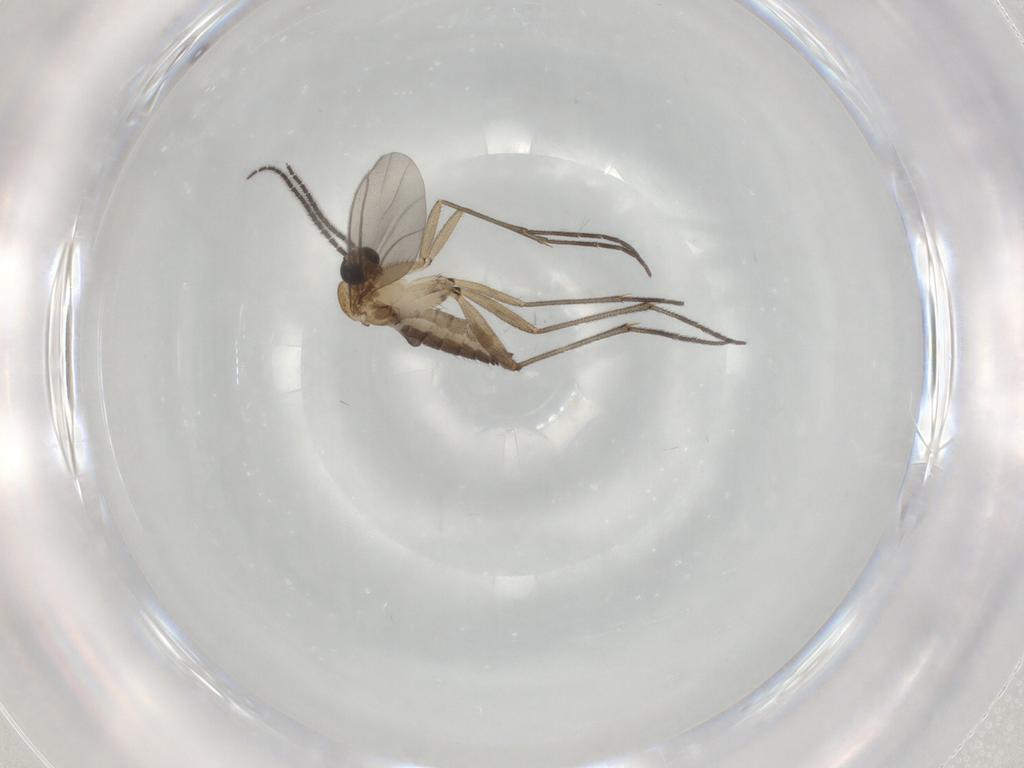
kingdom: Animalia
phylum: Arthropoda
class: Insecta
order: Diptera
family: Sciaridae
